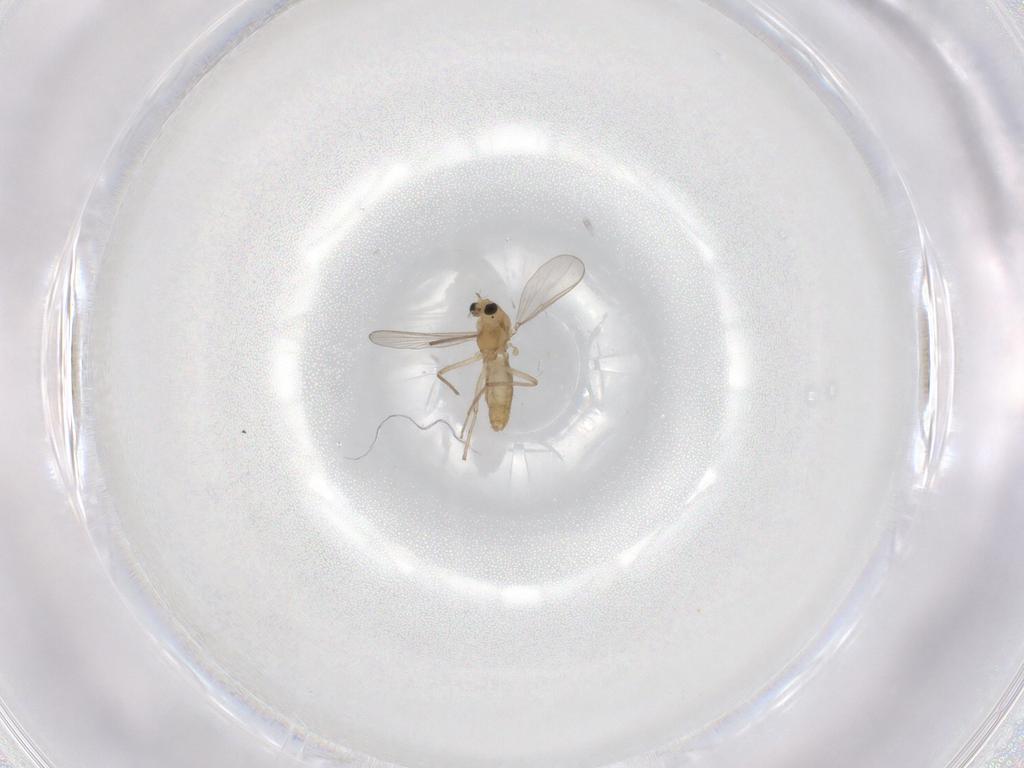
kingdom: Animalia
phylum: Arthropoda
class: Insecta
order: Diptera
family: Chironomidae
